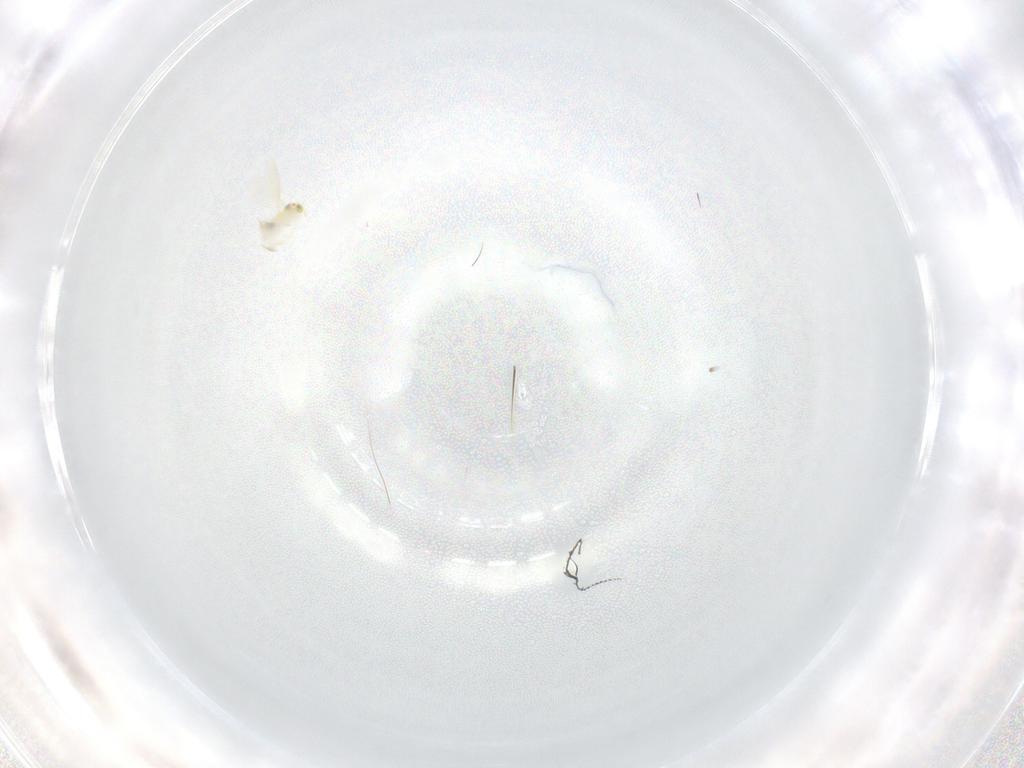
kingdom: Animalia
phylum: Arthropoda
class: Insecta
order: Hymenoptera
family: Aphelinidae
